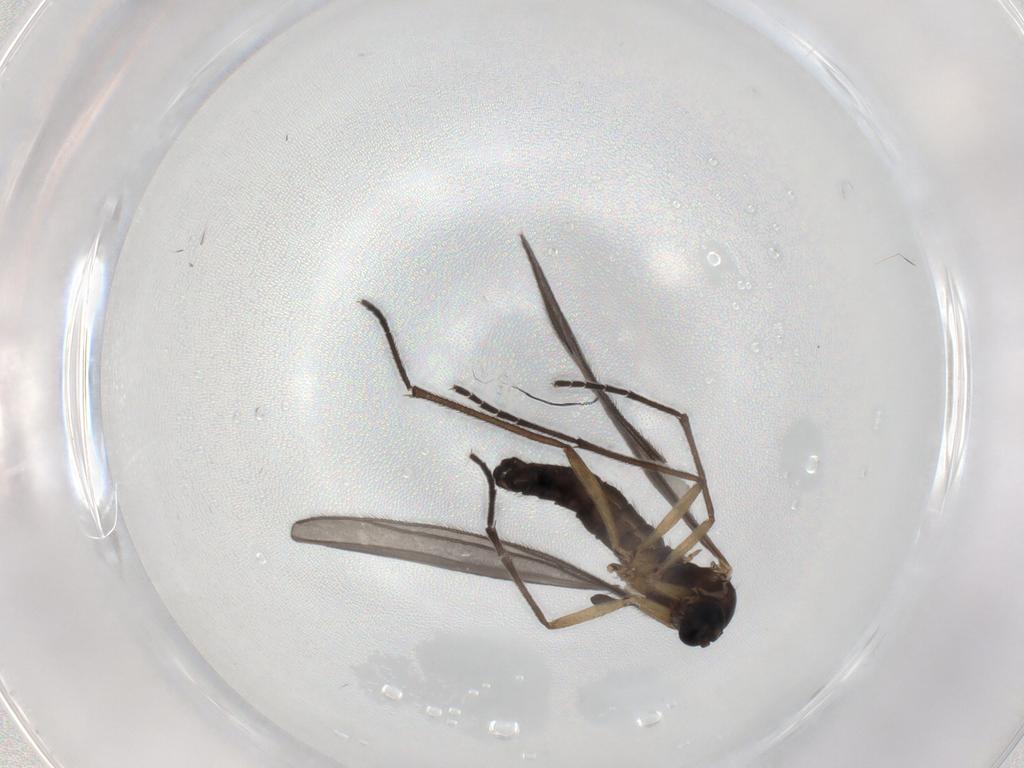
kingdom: Animalia
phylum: Arthropoda
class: Insecta
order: Diptera
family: Sciaridae
